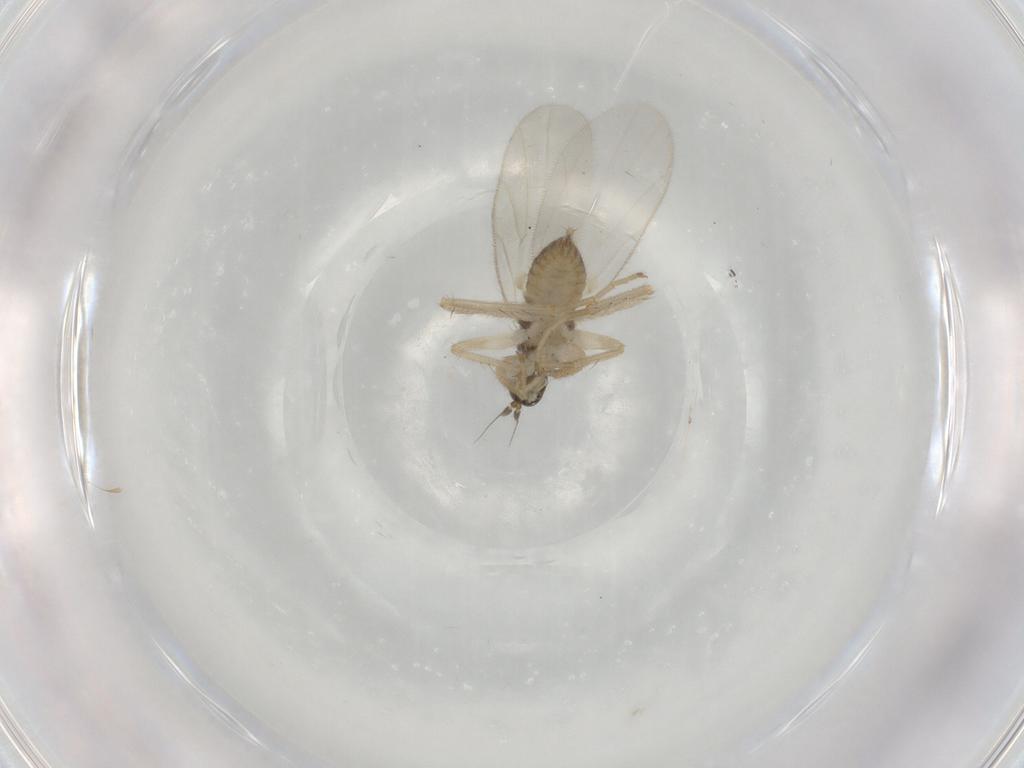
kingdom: Animalia
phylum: Arthropoda
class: Insecta
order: Diptera
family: Hybotidae
